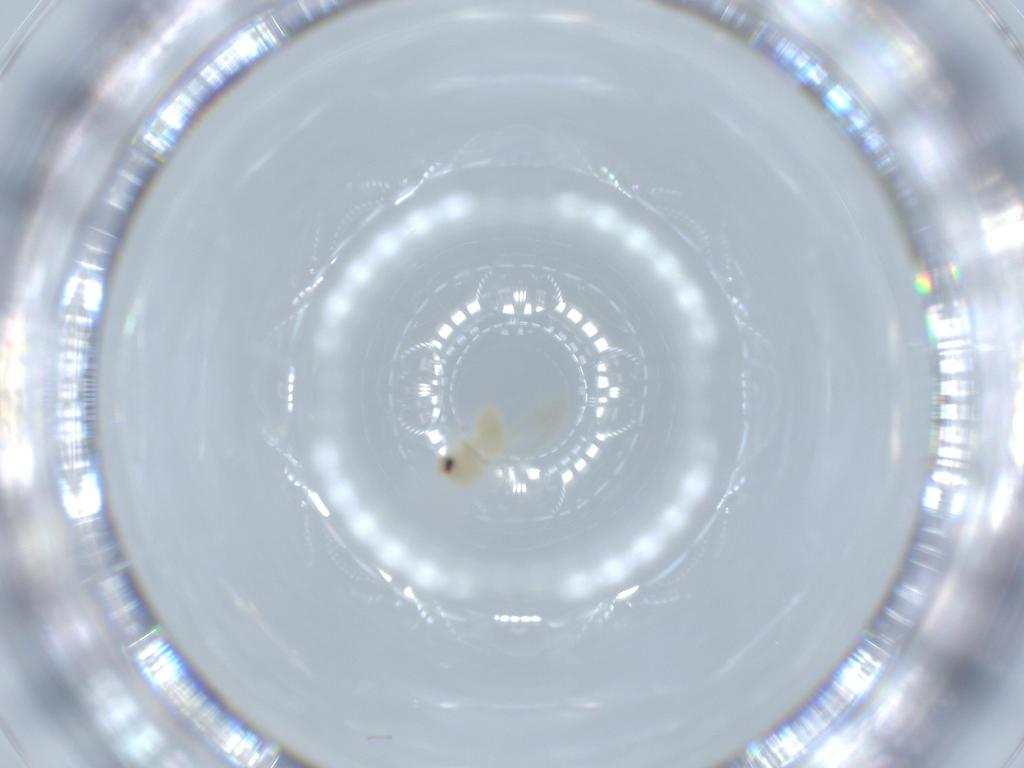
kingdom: Animalia
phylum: Arthropoda
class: Insecta
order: Hemiptera
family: Aleyrodidae
